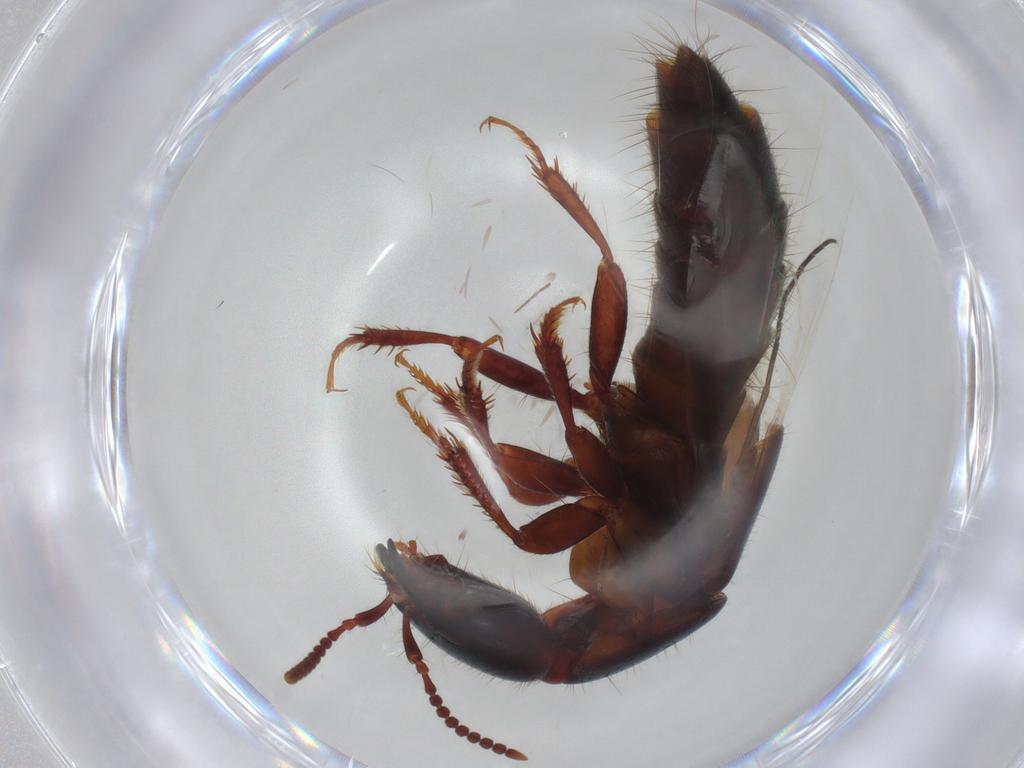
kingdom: Animalia
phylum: Arthropoda
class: Insecta
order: Coleoptera
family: Staphylinidae
